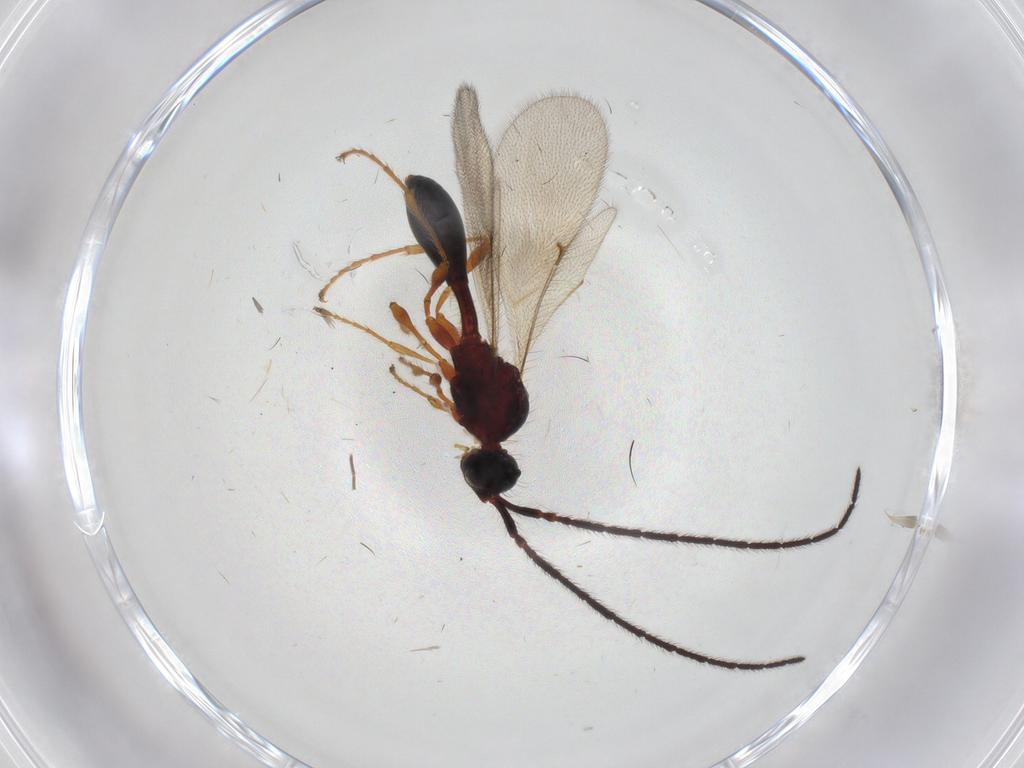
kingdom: Animalia
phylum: Arthropoda
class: Insecta
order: Hymenoptera
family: Diapriidae
